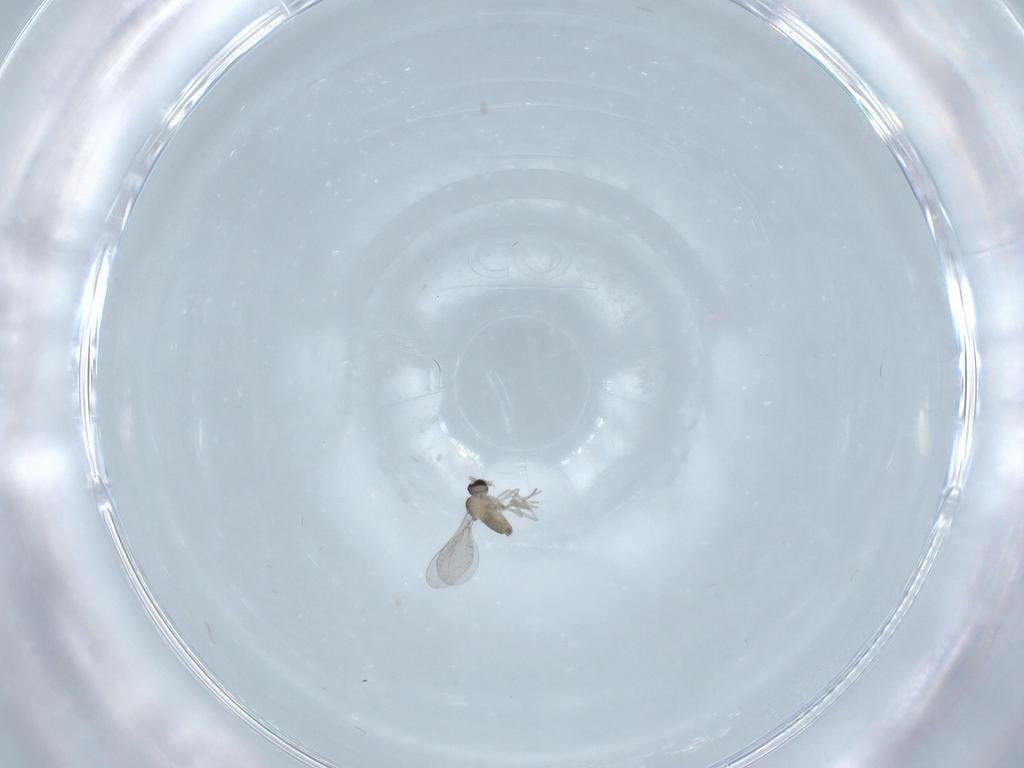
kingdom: Animalia
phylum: Arthropoda
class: Insecta
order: Diptera
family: Cecidomyiidae
